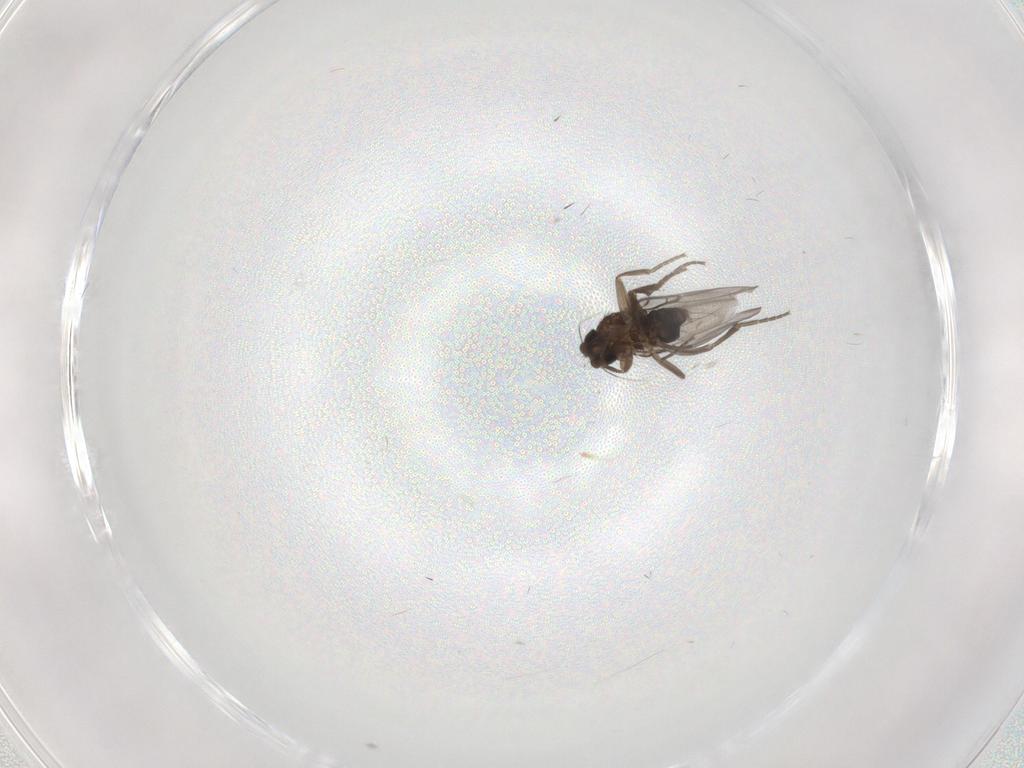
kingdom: Animalia
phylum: Arthropoda
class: Insecta
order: Diptera
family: Phoridae
